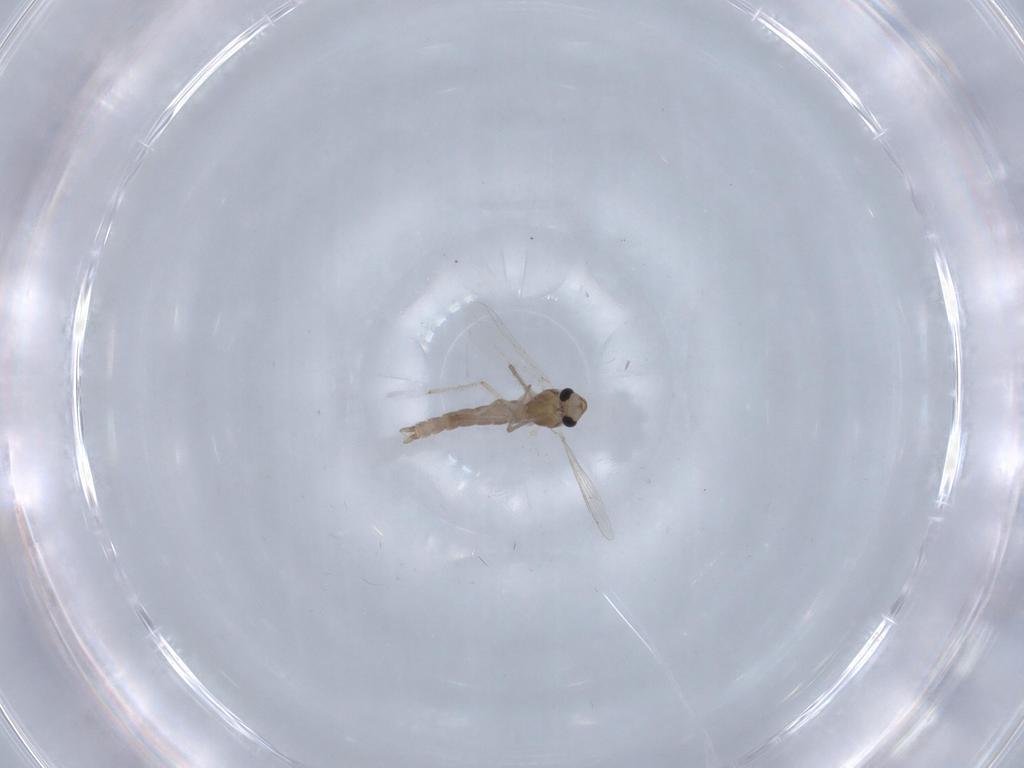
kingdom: Animalia
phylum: Arthropoda
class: Insecta
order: Diptera
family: Chironomidae
